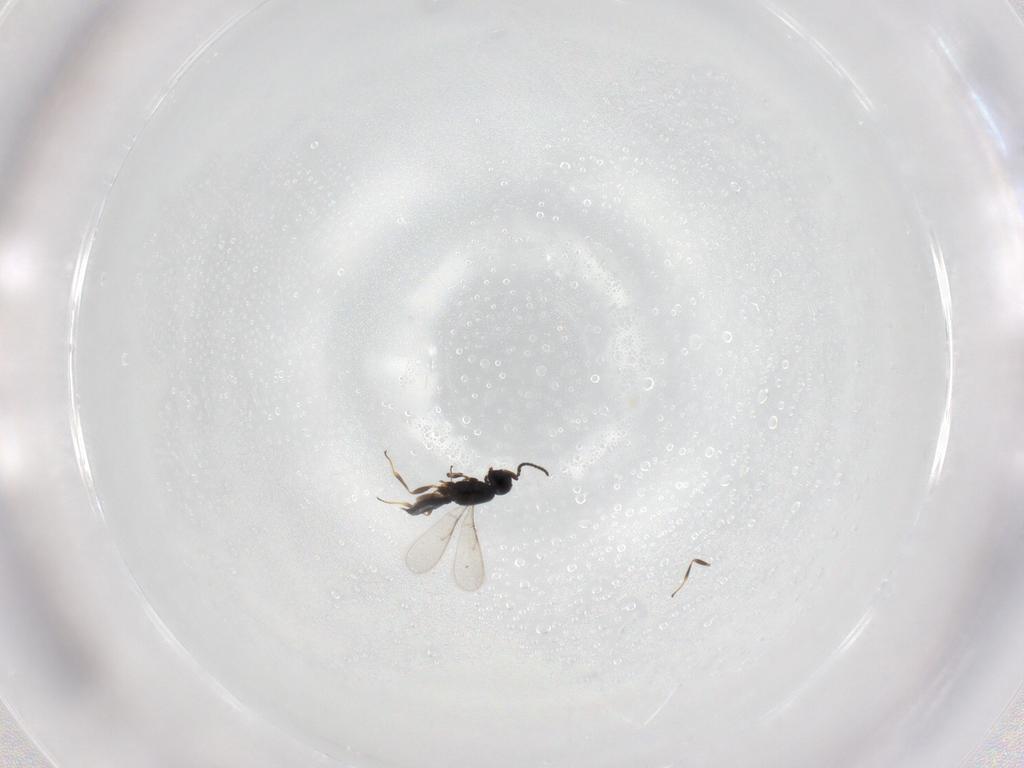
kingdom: Animalia
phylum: Arthropoda
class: Insecta
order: Hymenoptera
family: Scelionidae
